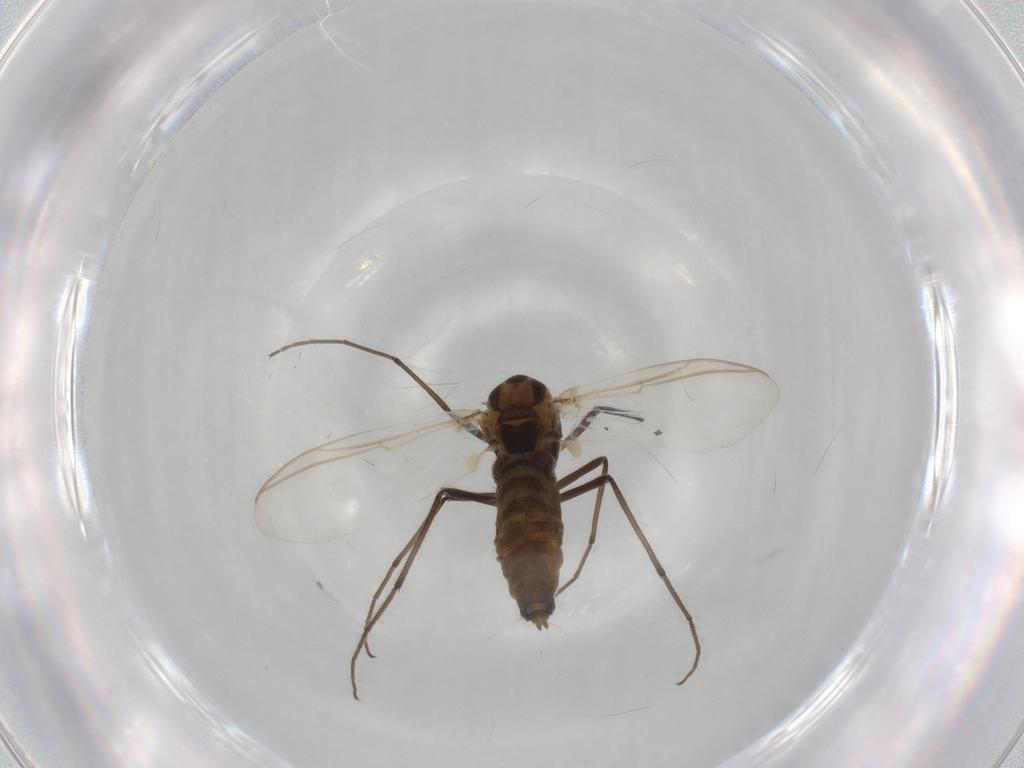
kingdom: Animalia
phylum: Arthropoda
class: Insecta
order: Diptera
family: Chironomidae
